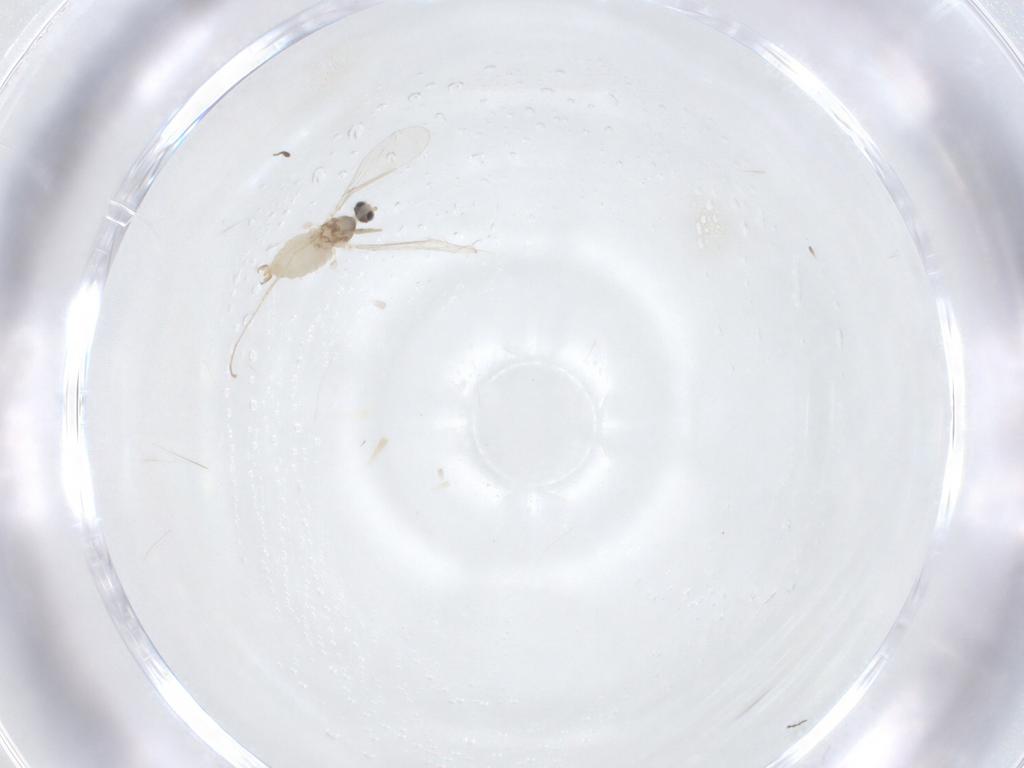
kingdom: Animalia
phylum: Arthropoda
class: Insecta
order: Diptera
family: Cecidomyiidae
